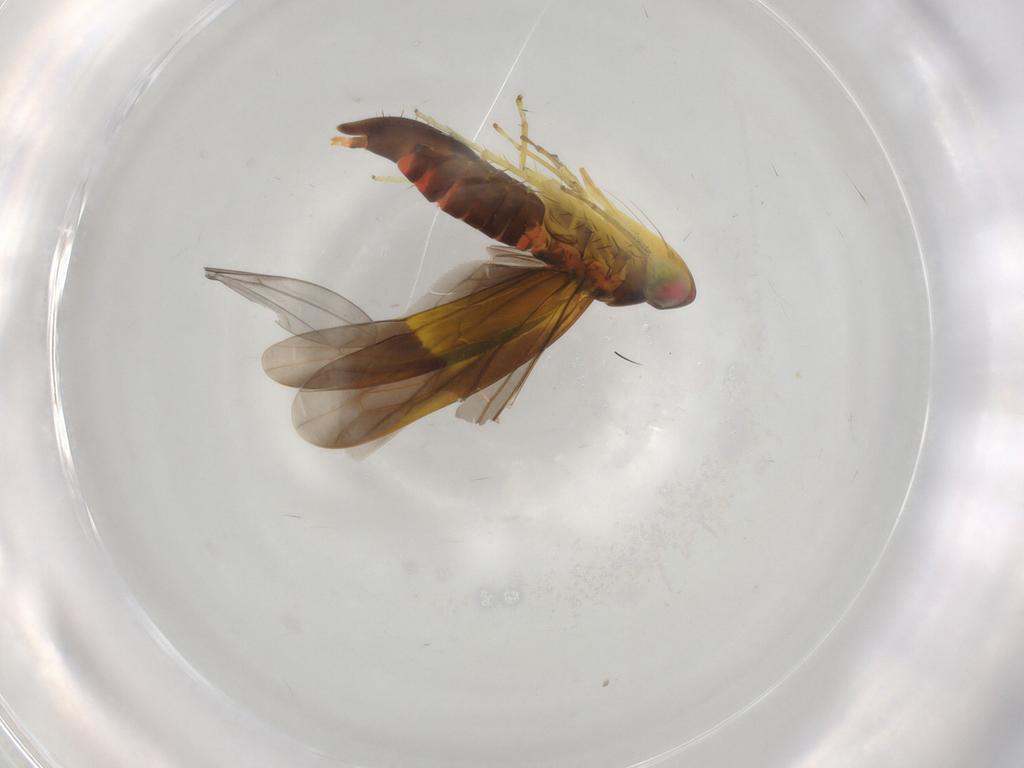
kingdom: Animalia
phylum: Arthropoda
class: Insecta
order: Hemiptera
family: Cicadellidae
